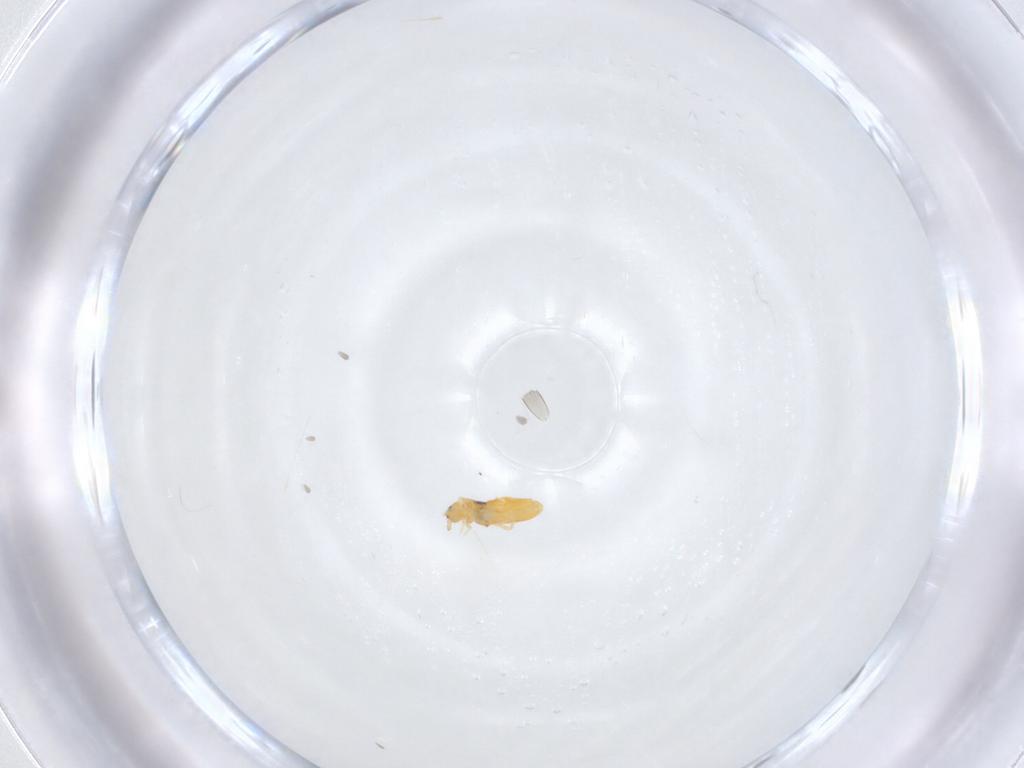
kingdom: Animalia
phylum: Arthropoda
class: Collembola
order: Entomobryomorpha
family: Entomobryidae
